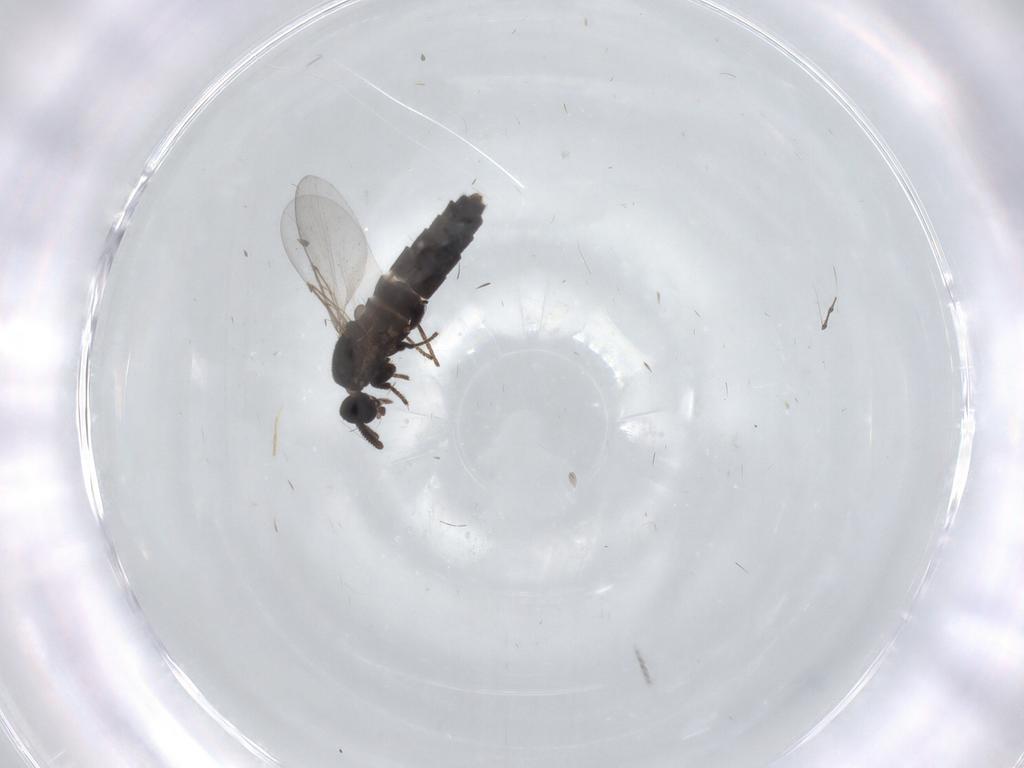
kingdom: Animalia
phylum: Arthropoda
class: Insecta
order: Diptera
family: Scatopsidae
